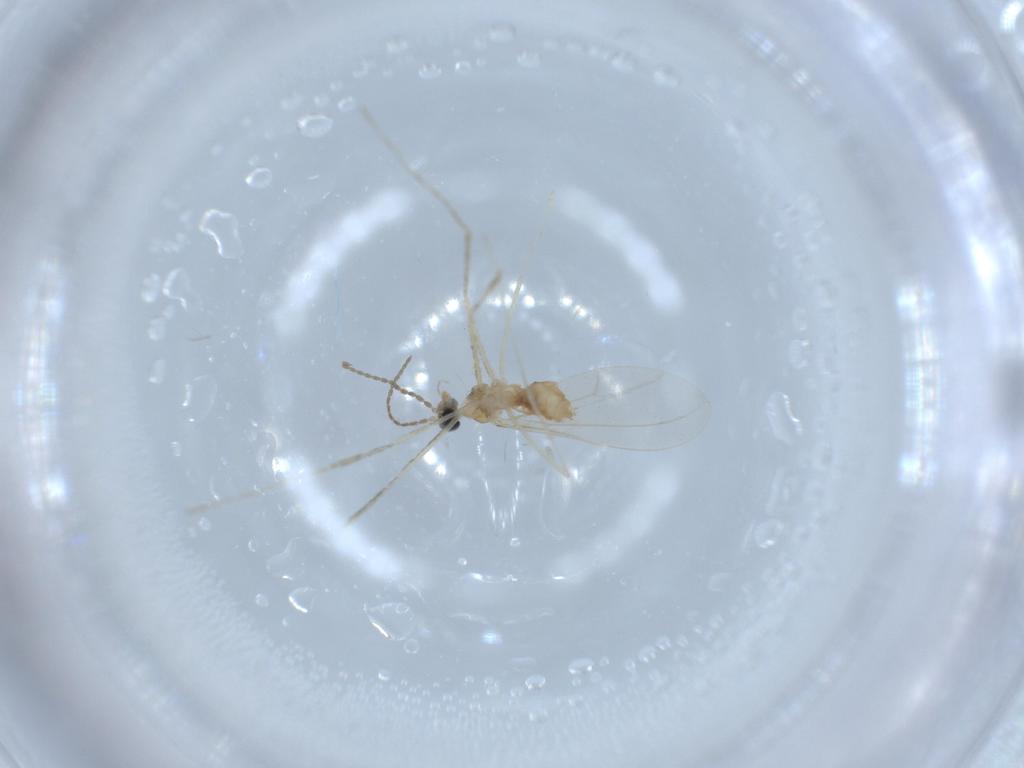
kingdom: Animalia
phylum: Arthropoda
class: Insecta
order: Diptera
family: Cecidomyiidae
